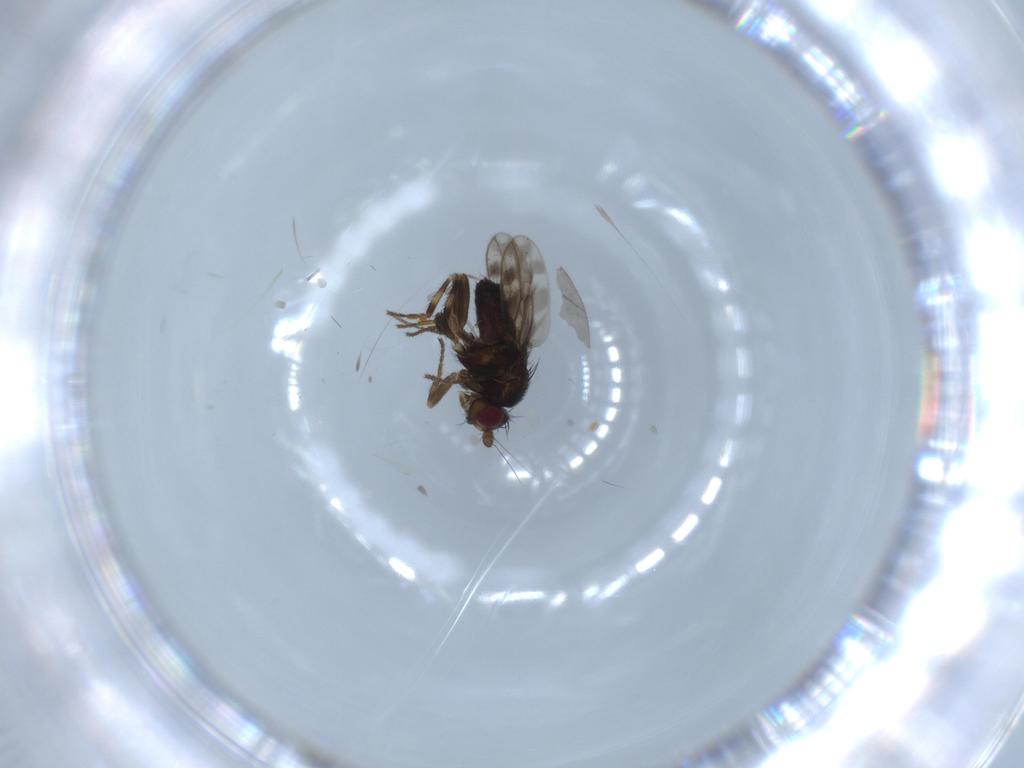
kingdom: Animalia
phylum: Arthropoda
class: Insecta
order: Diptera
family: Sphaeroceridae
